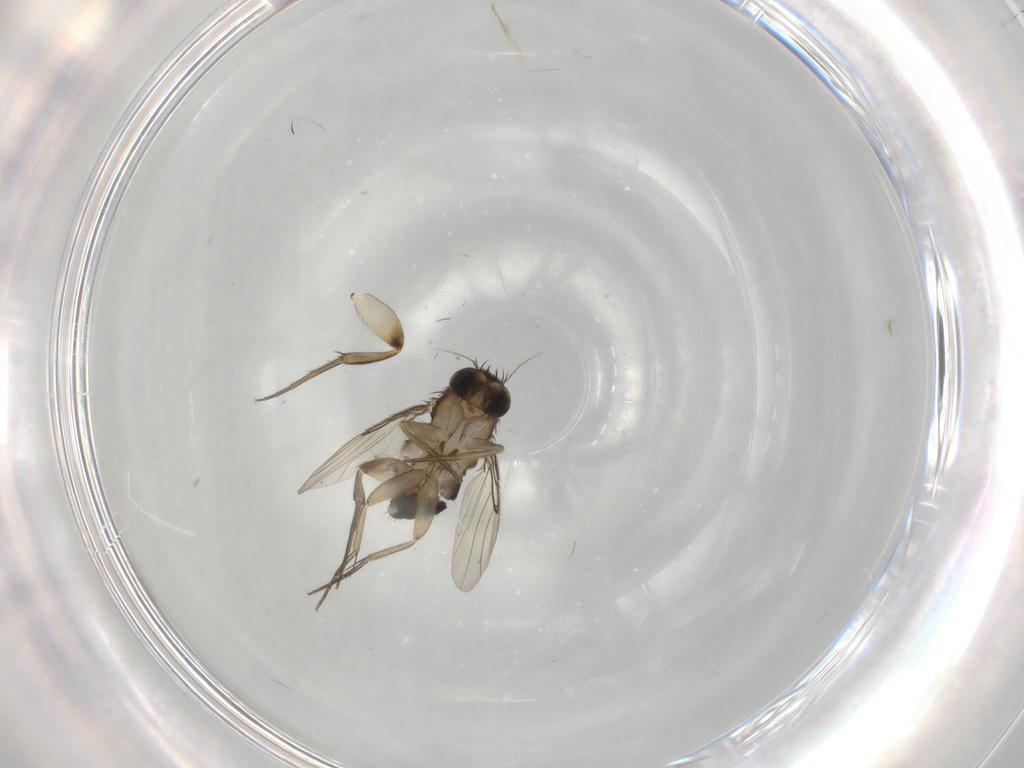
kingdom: Animalia
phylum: Arthropoda
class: Insecta
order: Diptera
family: Phoridae
